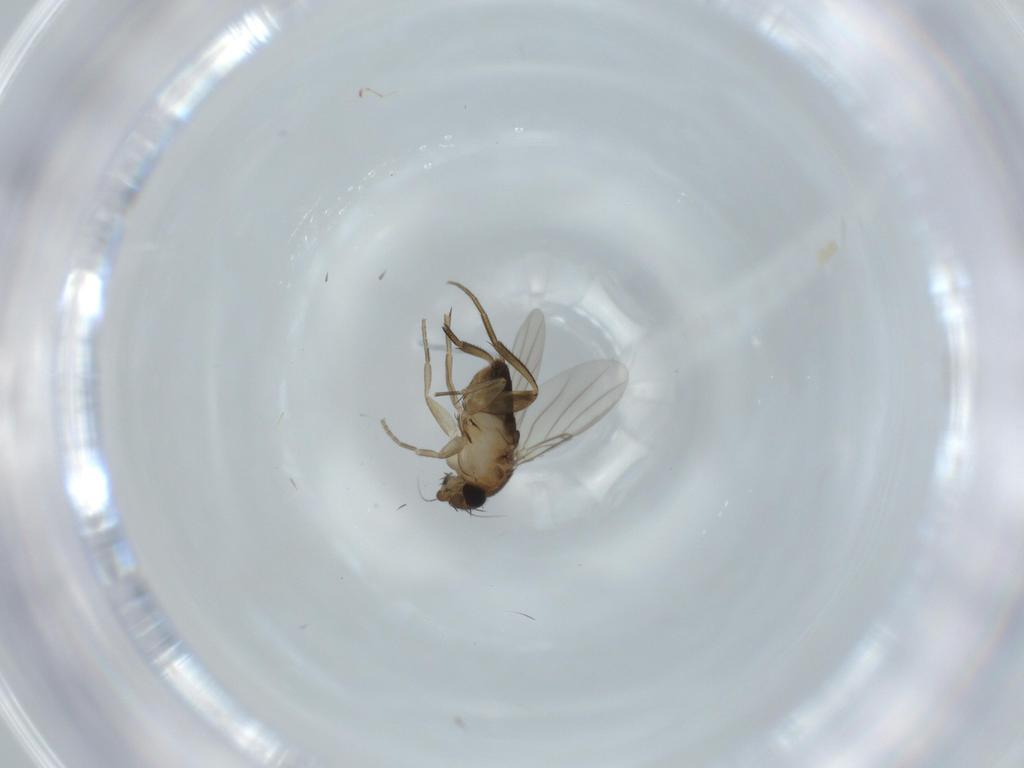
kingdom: Animalia
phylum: Arthropoda
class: Insecta
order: Diptera
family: Phoridae
